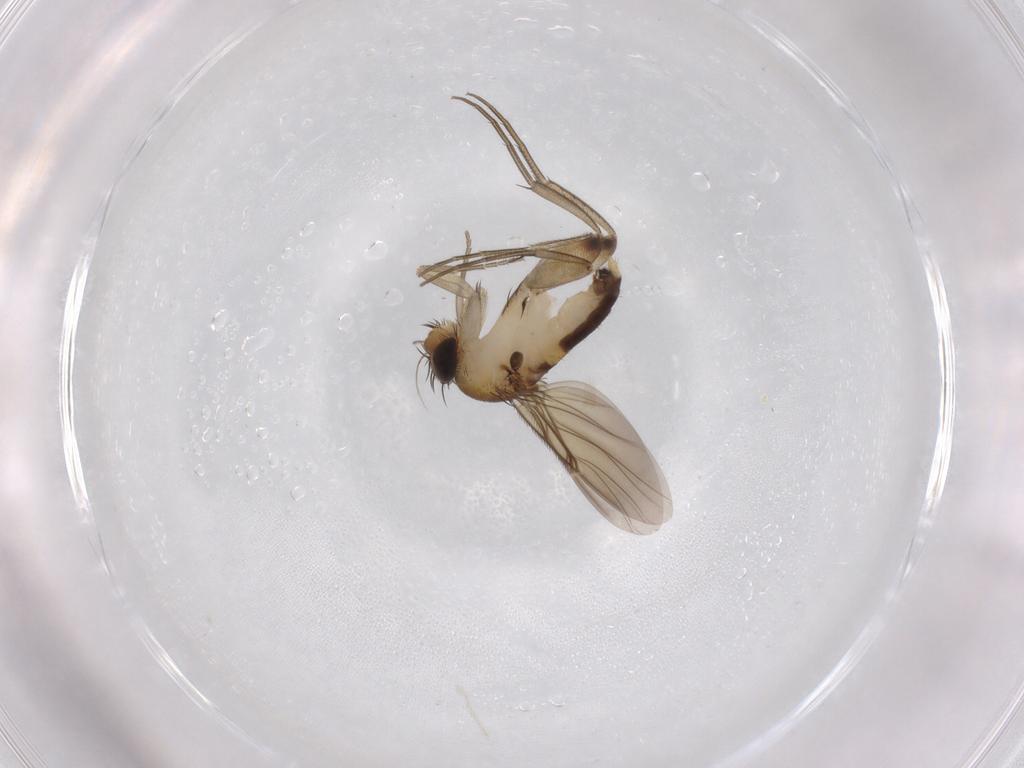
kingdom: Animalia
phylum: Arthropoda
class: Insecta
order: Diptera
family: Phoridae
